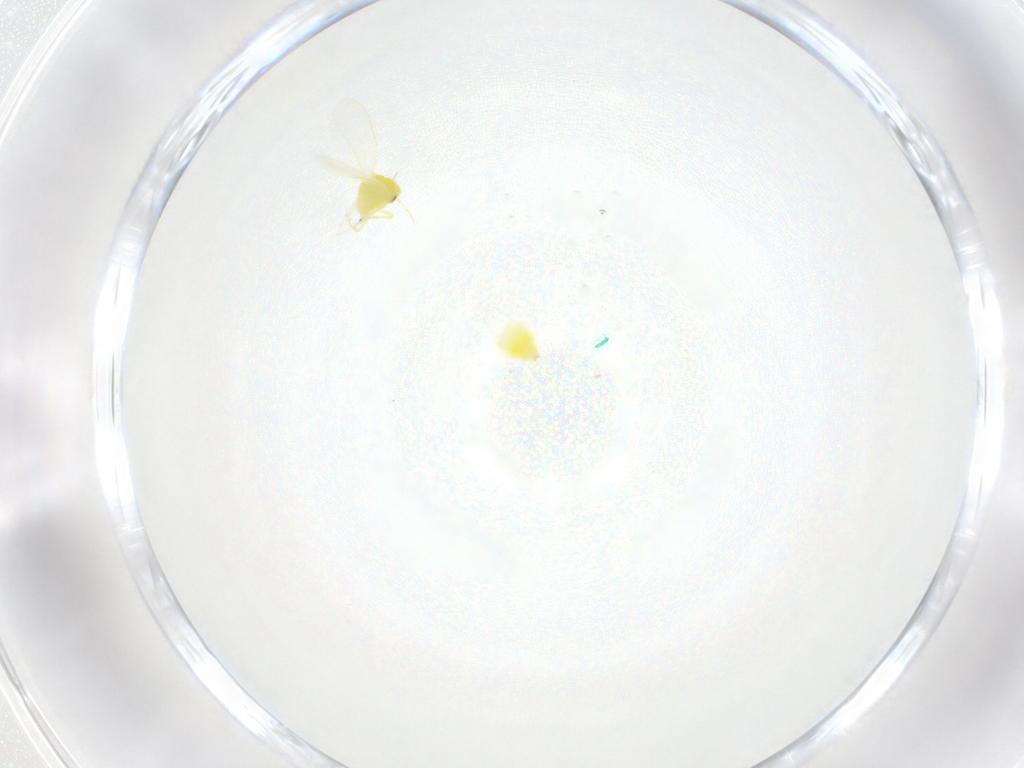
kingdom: Animalia
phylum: Arthropoda
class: Insecta
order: Hemiptera
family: Aleyrodidae
